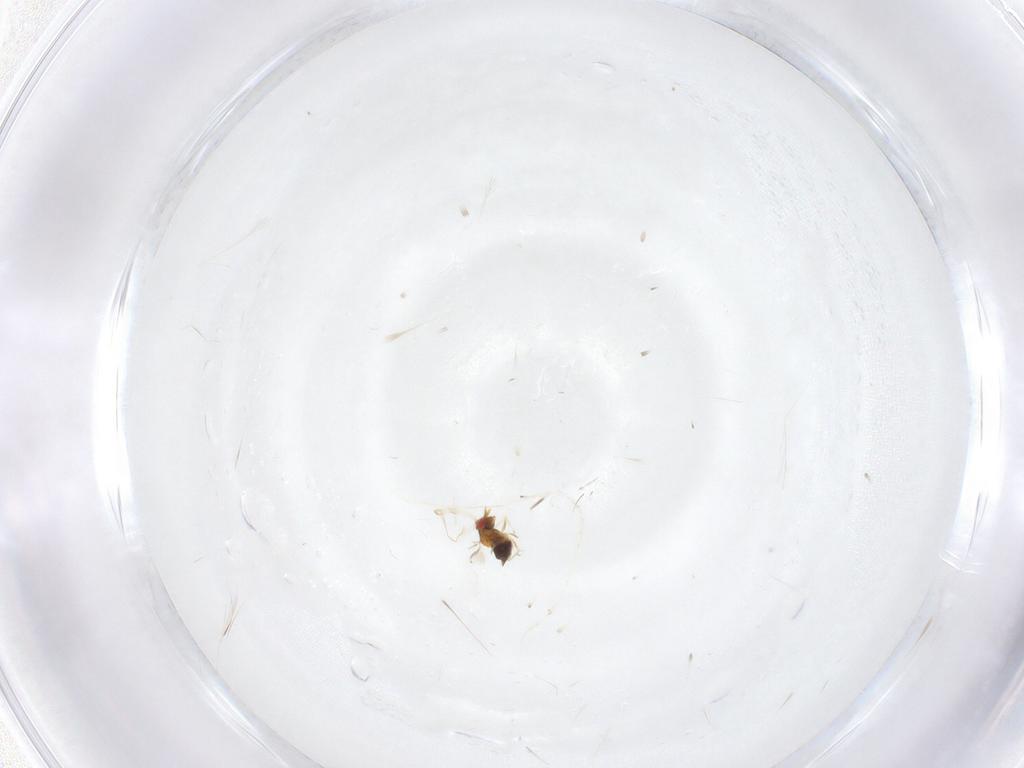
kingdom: Animalia
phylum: Arthropoda
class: Insecta
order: Hymenoptera
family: Trichogrammatidae
